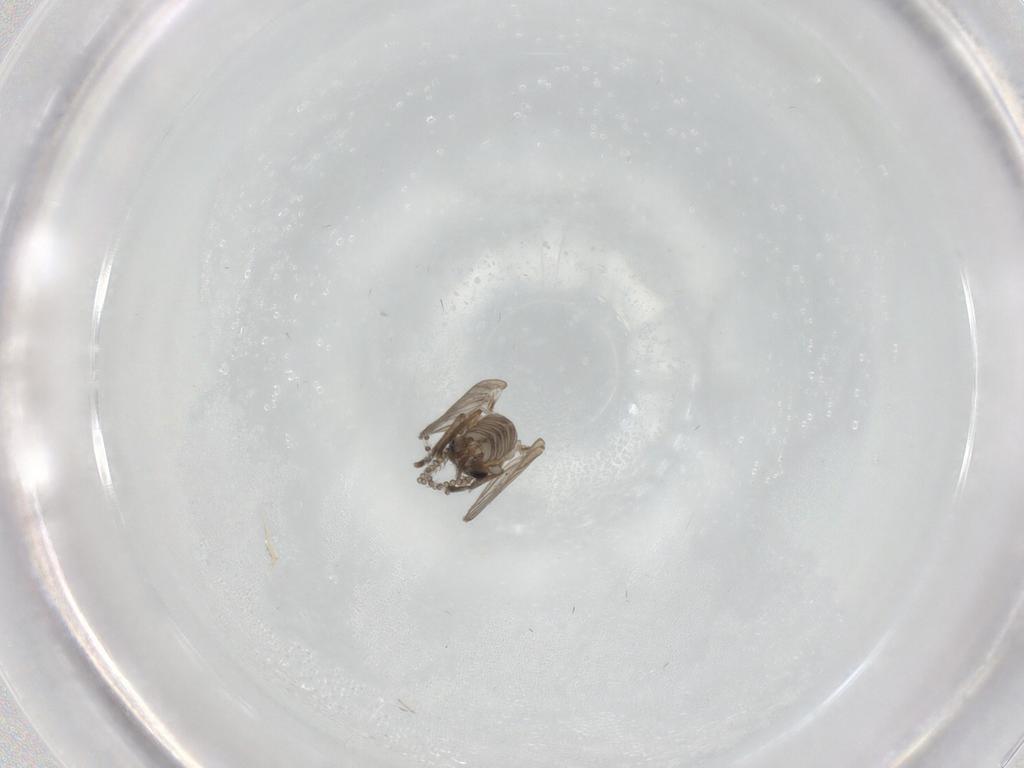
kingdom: Animalia
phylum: Arthropoda
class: Insecta
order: Diptera
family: Psychodidae
